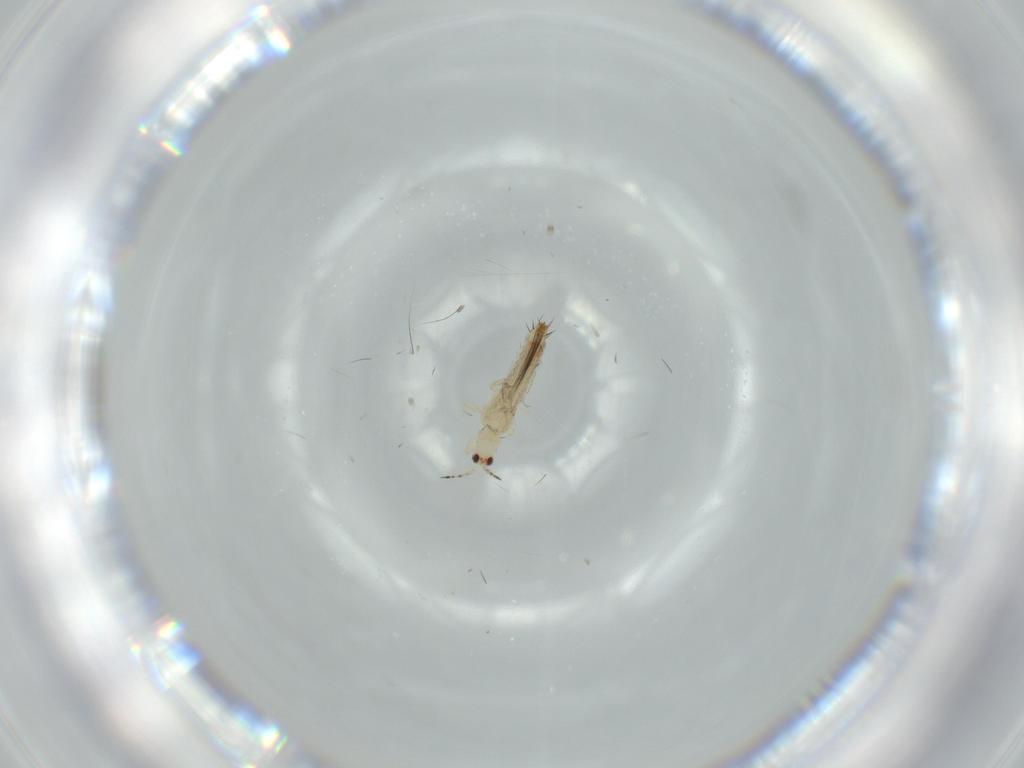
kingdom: Animalia
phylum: Arthropoda
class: Insecta
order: Thysanoptera
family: Thripidae
